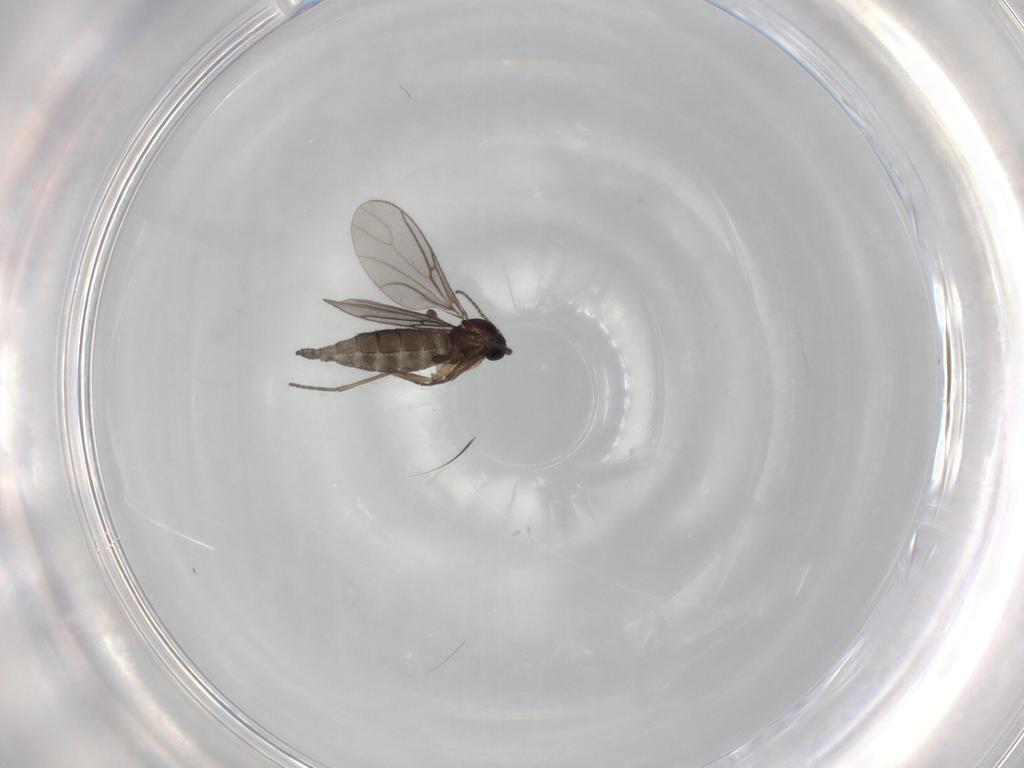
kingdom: Animalia
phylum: Arthropoda
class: Insecta
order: Diptera
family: Sciaridae
